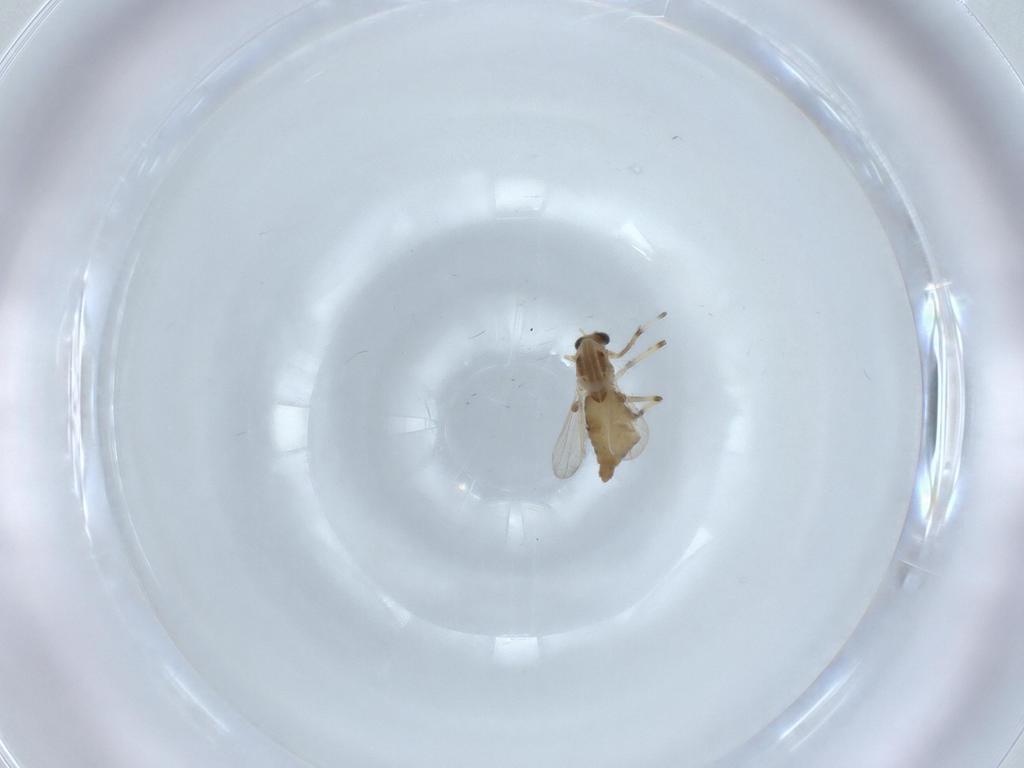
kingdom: Animalia
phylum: Arthropoda
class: Insecta
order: Diptera
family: Chironomidae
